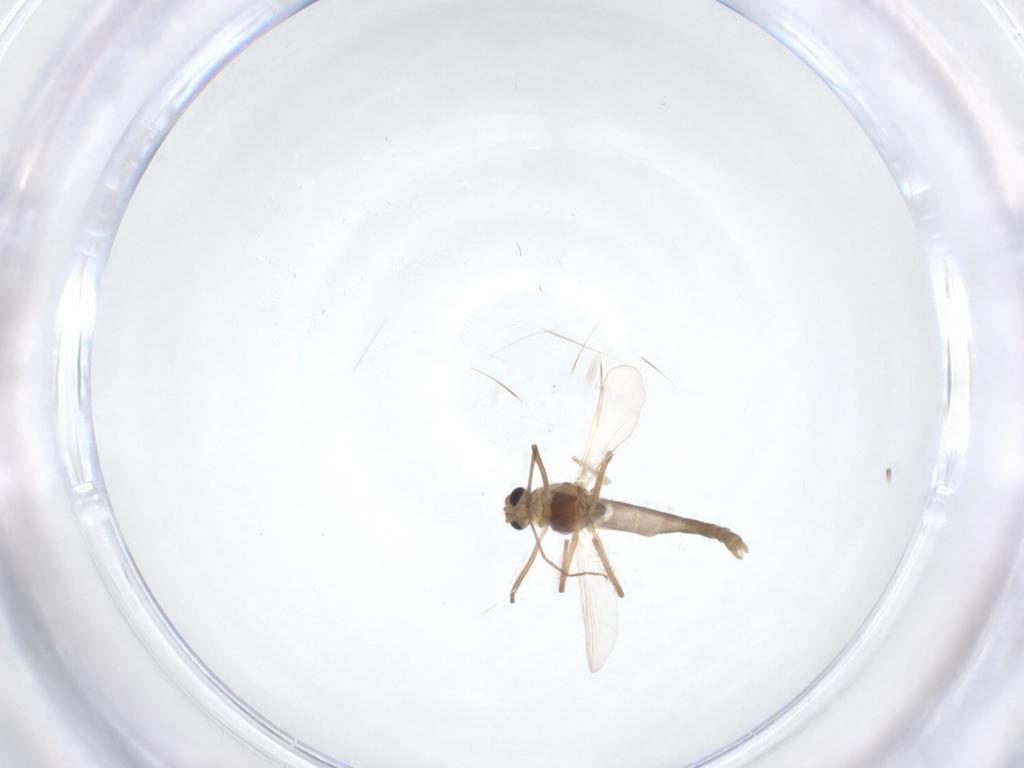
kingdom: Animalia
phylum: Arthropoda
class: Insecta
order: Diptera
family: Chironomidae
